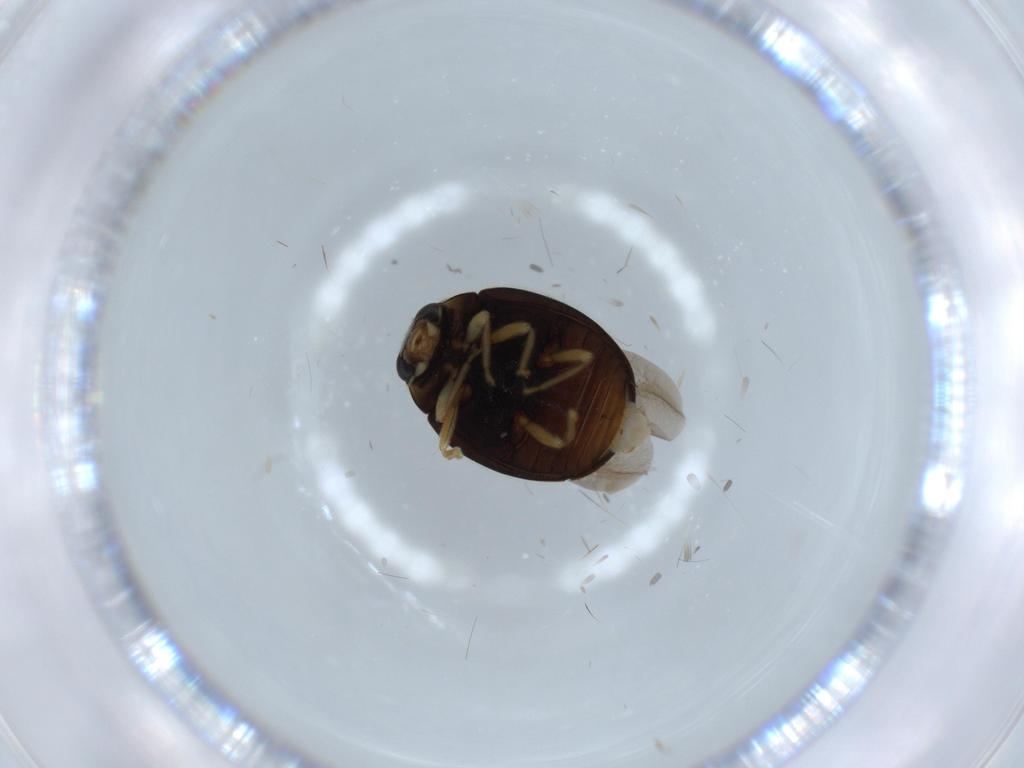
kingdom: Animalia
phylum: Arthropoda
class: Insecta
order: Coleoptera
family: Coccinellidae
